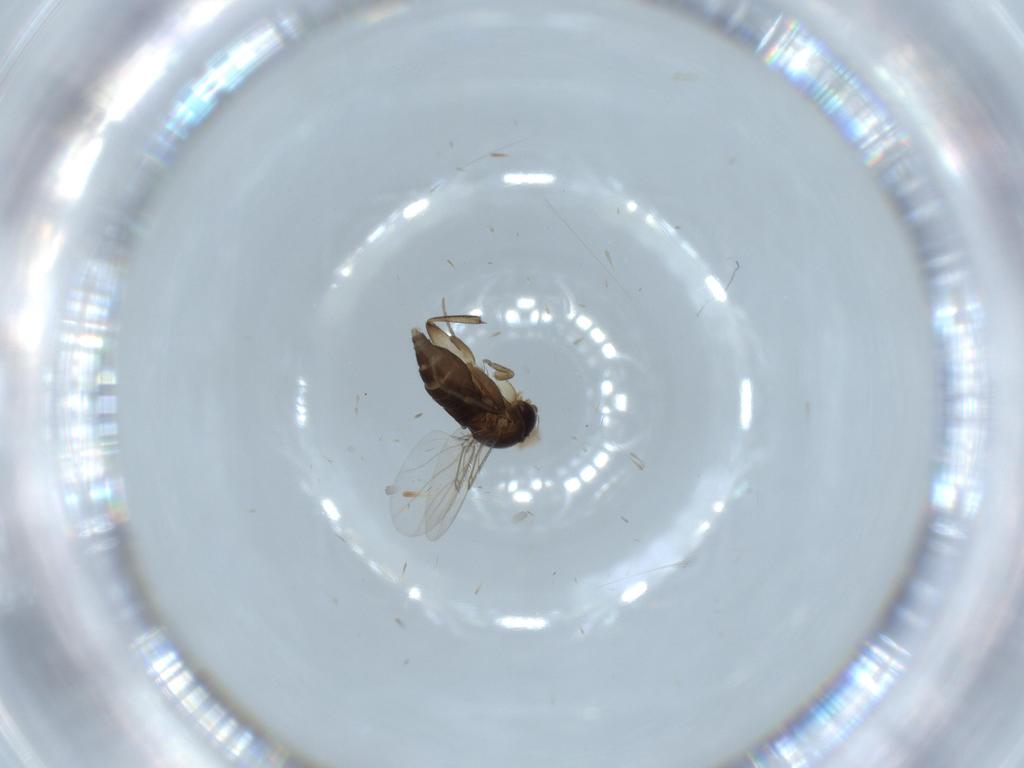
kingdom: Animalia
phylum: Arthropoda
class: Insecta
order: Diptera
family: Phoridae
